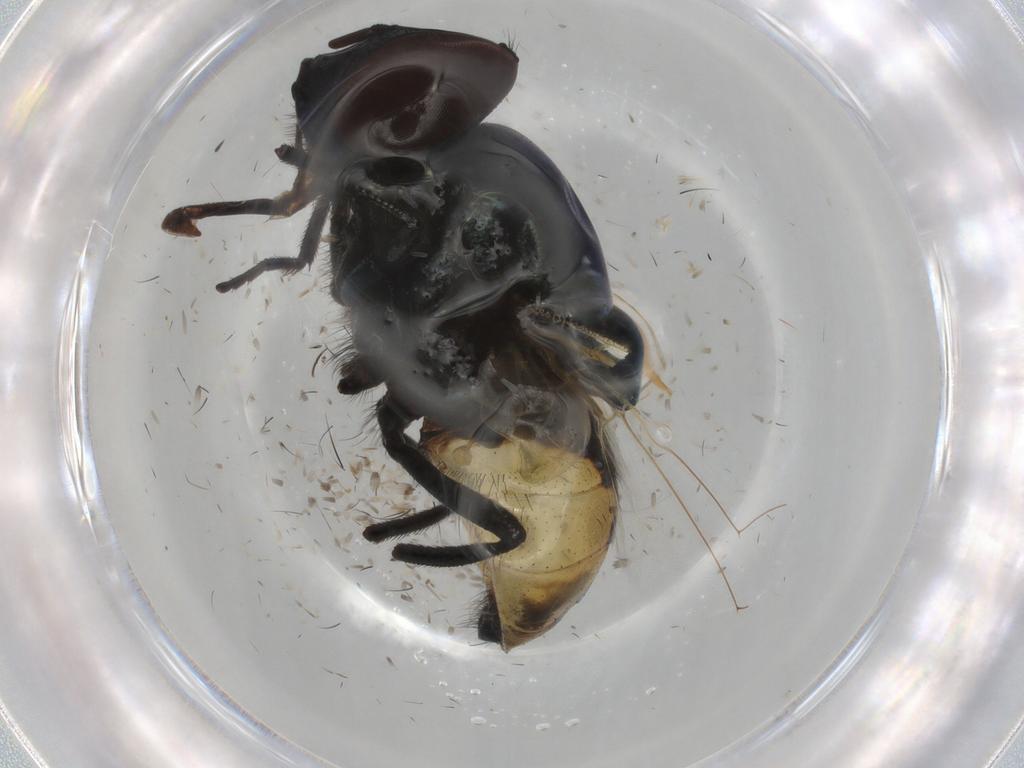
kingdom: Animalia
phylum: Arthropoda
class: Insecta
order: Diptera
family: Muscidae
